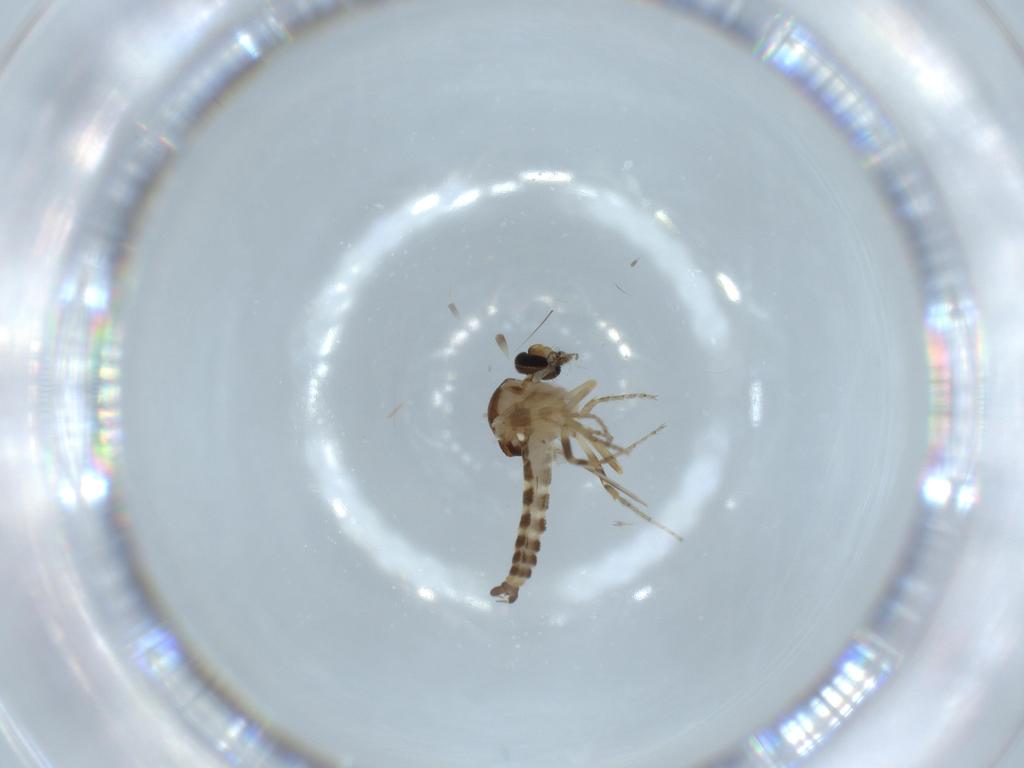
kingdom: Animalia
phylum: Arthropoda
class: Insecta
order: Diptera
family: Ceratopogonidae
